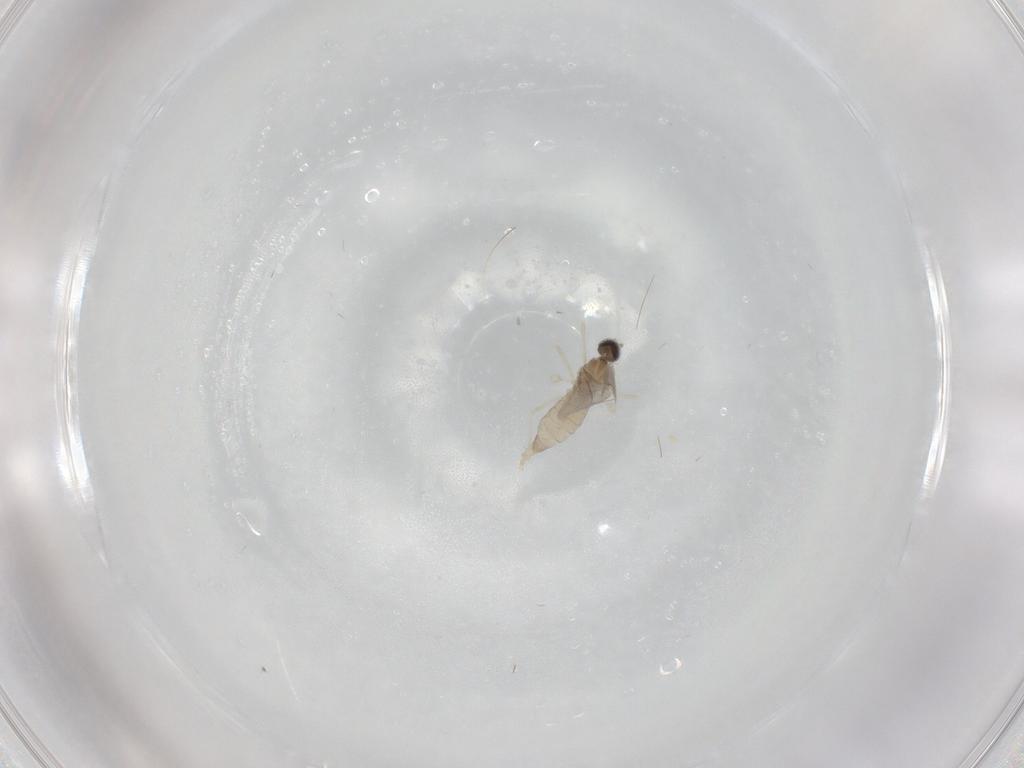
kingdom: Animalia
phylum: Arthropoda
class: Insecta
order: Diptera
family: Cecidomyiidae
